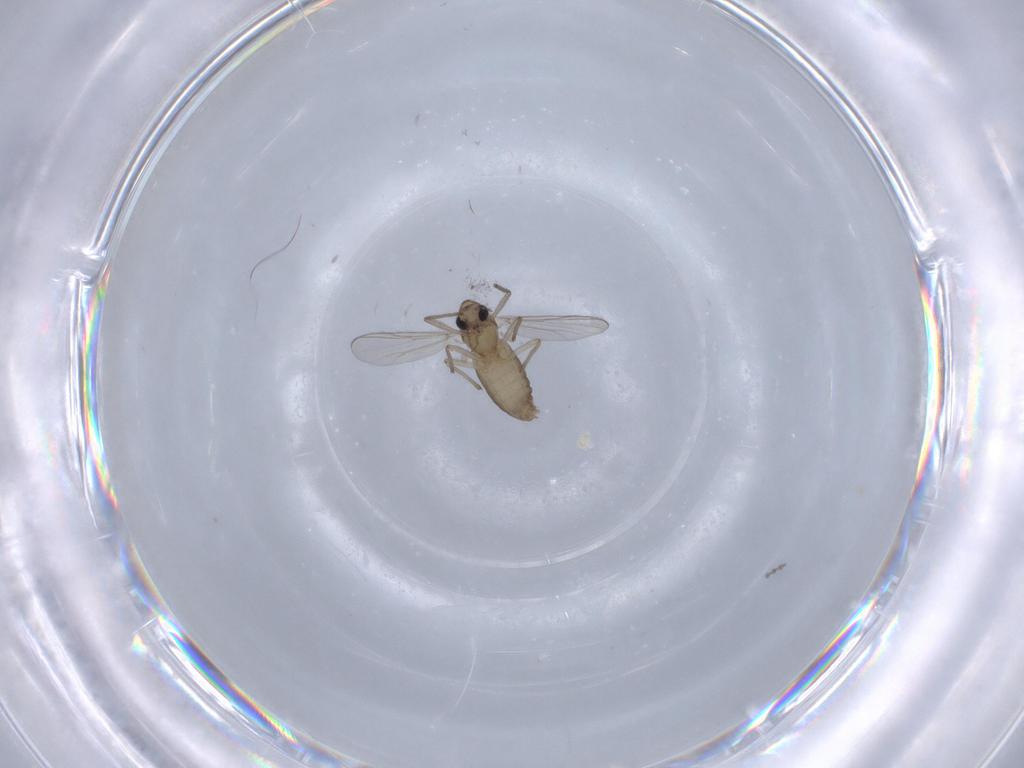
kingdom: Animalia
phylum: Arthropoda
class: Insecta
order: Diptera
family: Chironomidae
